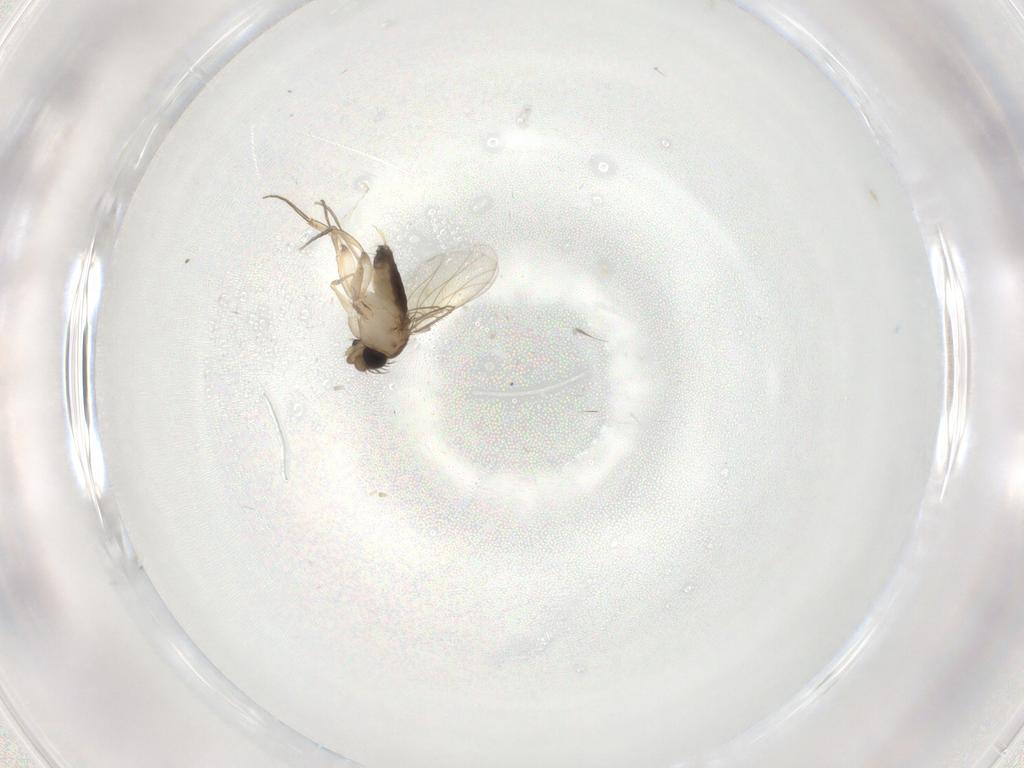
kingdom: Animalia
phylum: Arthropoda
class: Insecta
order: Diptera
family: Phoridae
